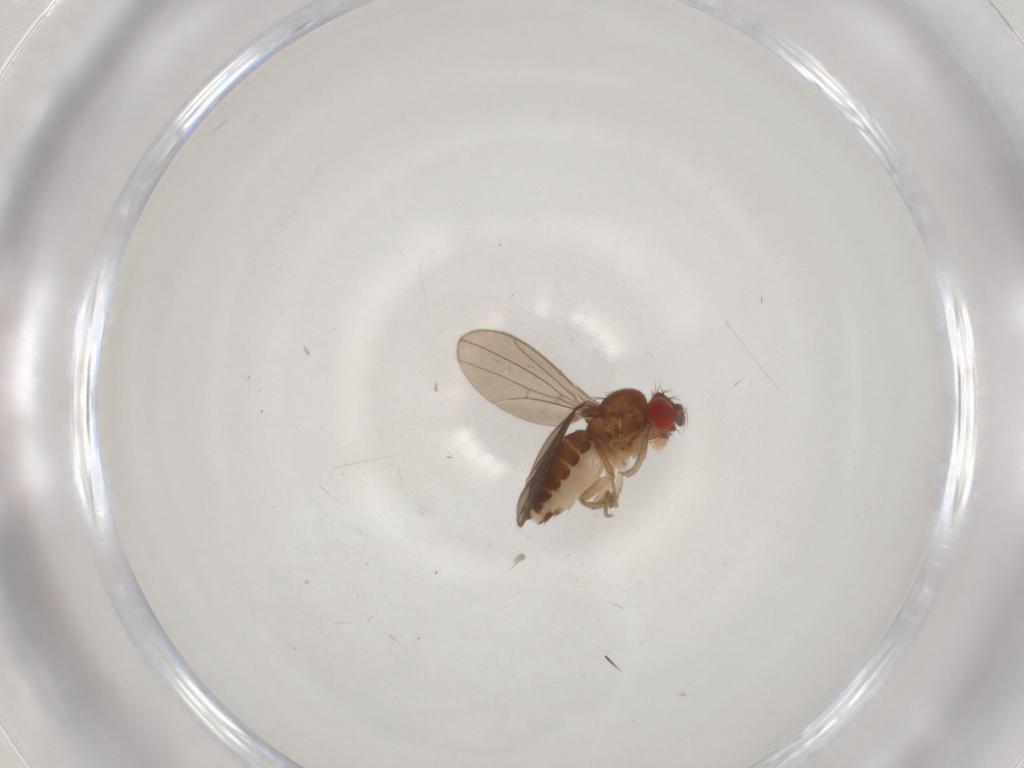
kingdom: Animalia
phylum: Arthropoda
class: Insecta
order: Diptera
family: Sphaeroceridae
